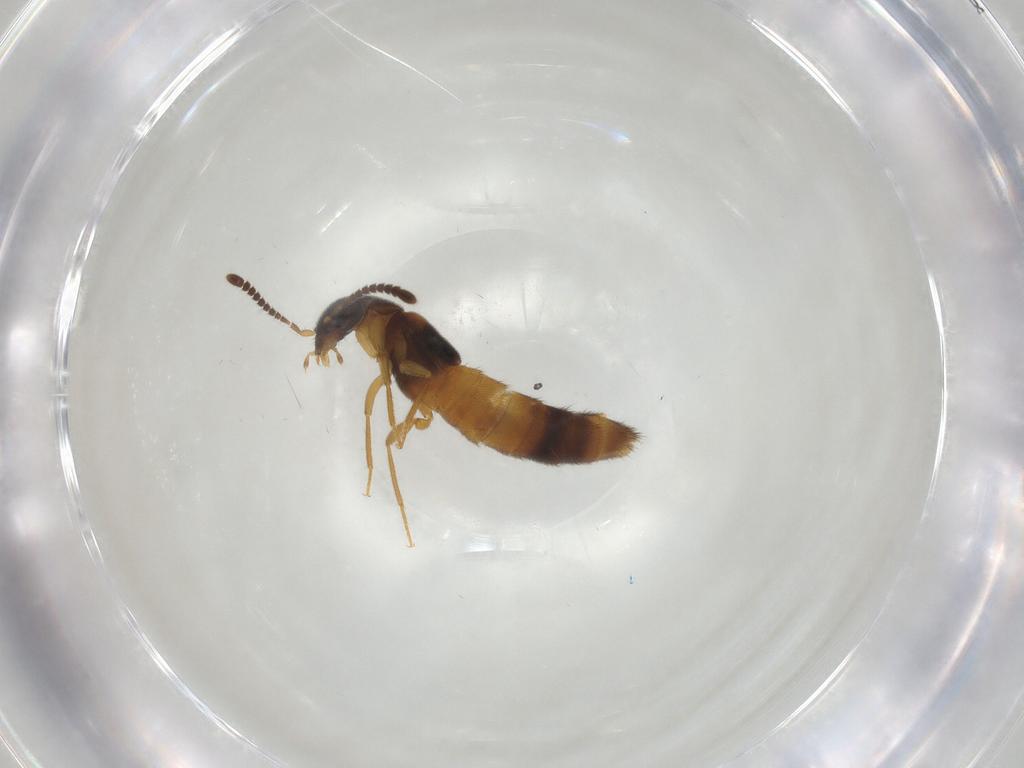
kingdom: Animalia
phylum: Arthropoda
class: Insecta
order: Coleoptera
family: Staphylinidae
